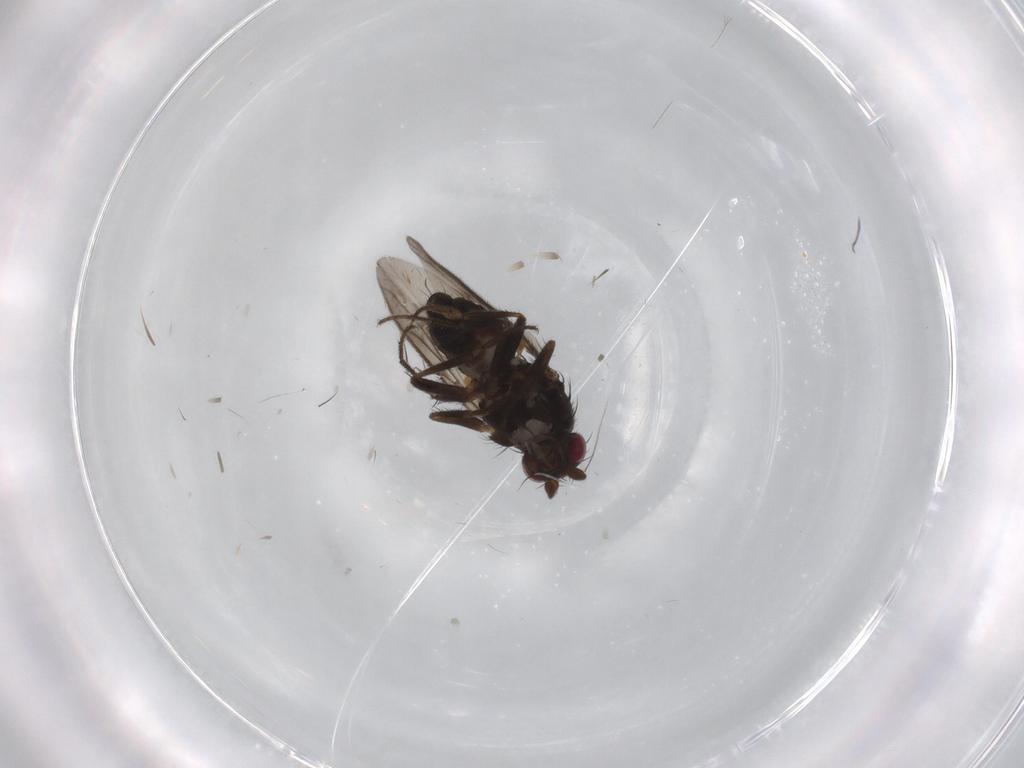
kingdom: Animalia
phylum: Arthropoda
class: Insecta
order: Diptera
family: Sphaeroceridae
